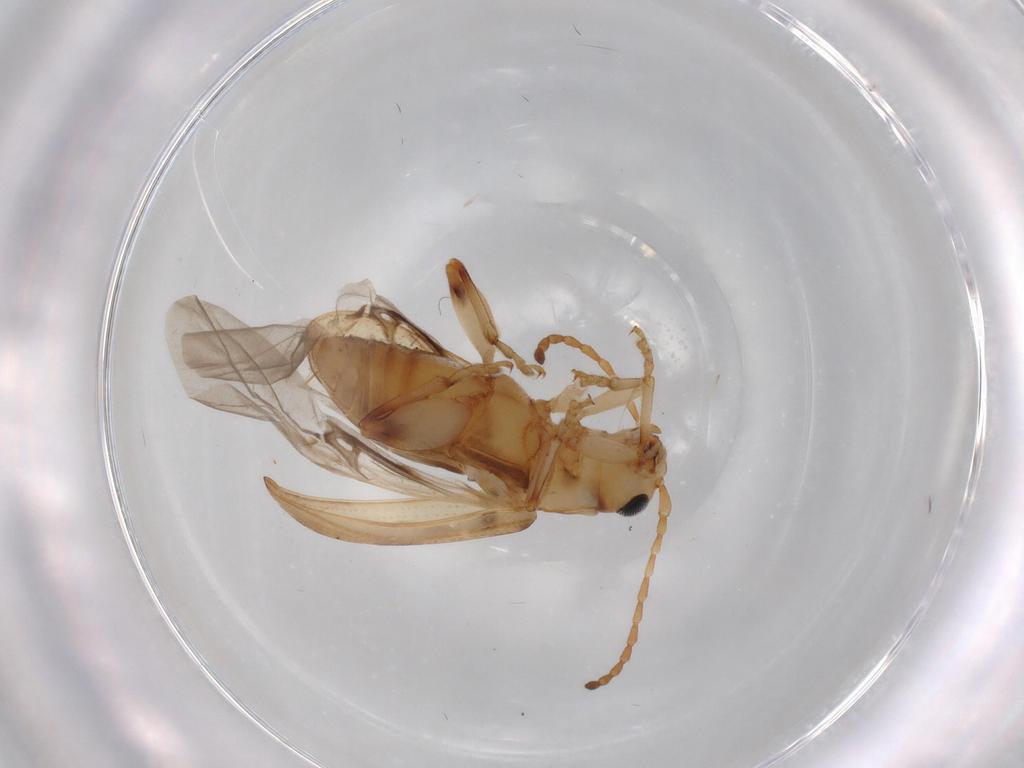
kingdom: Animalia
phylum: Arthropoda
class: Insecta
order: Coleoptera
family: Chrysomelidae
